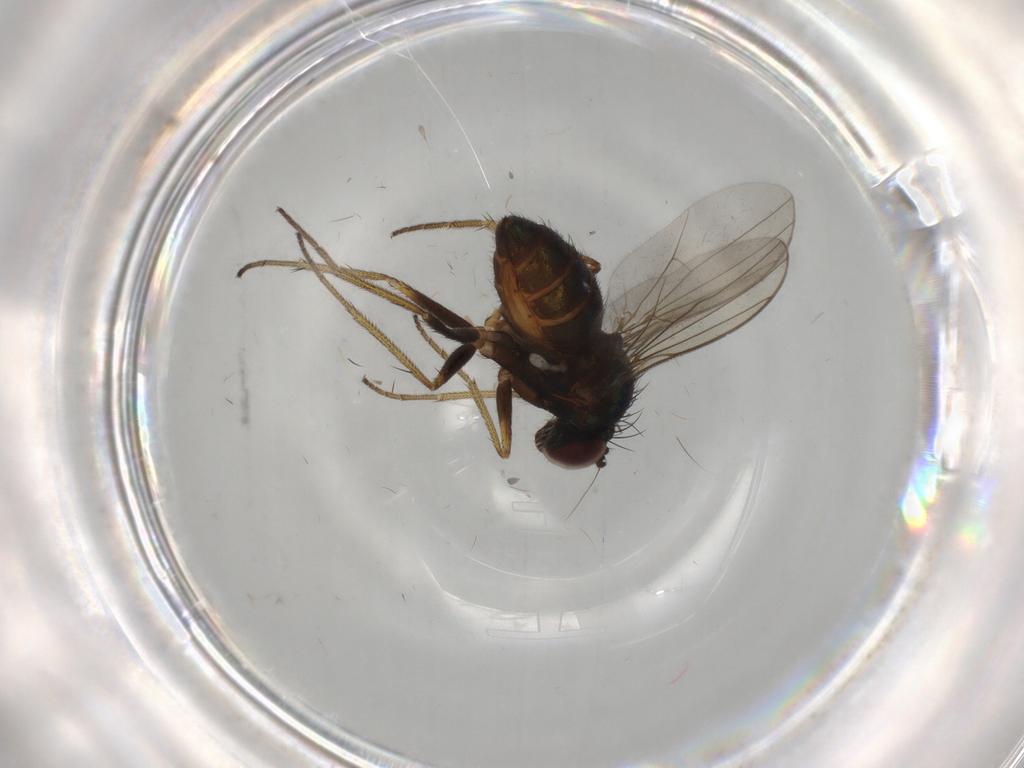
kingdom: Animalia
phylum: Arthropoda
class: Insecta
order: Diptera
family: Dolichopodidae
